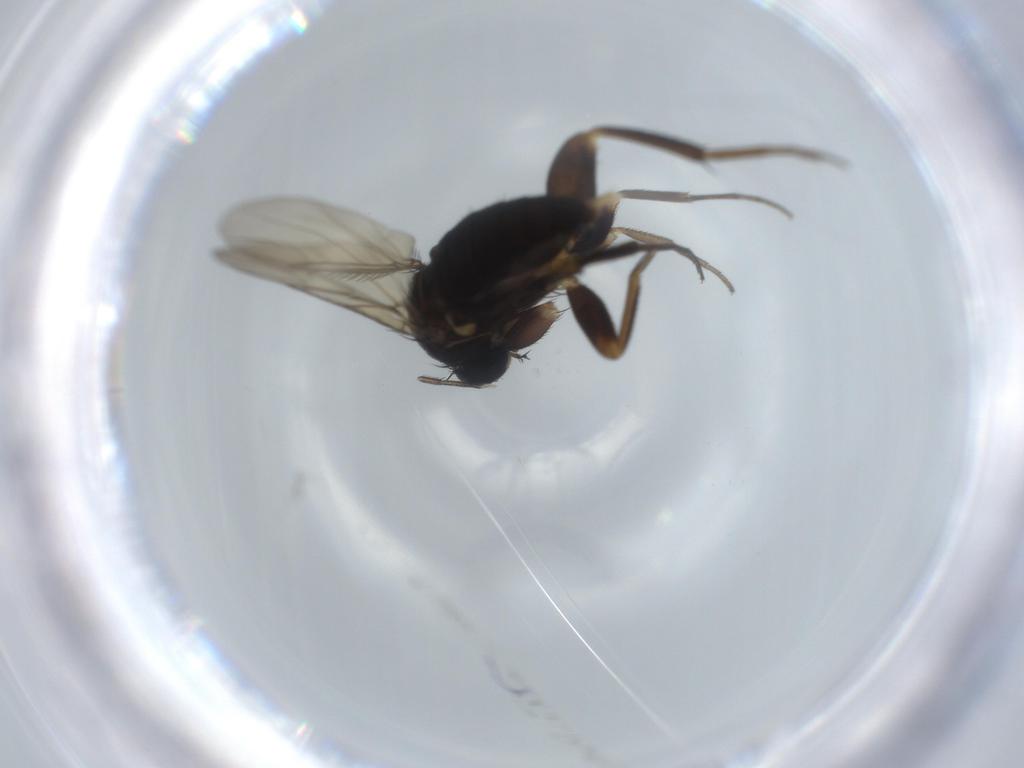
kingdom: Animalia
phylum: Arthropoda
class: Insecta
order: Diptera
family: Phoridae
